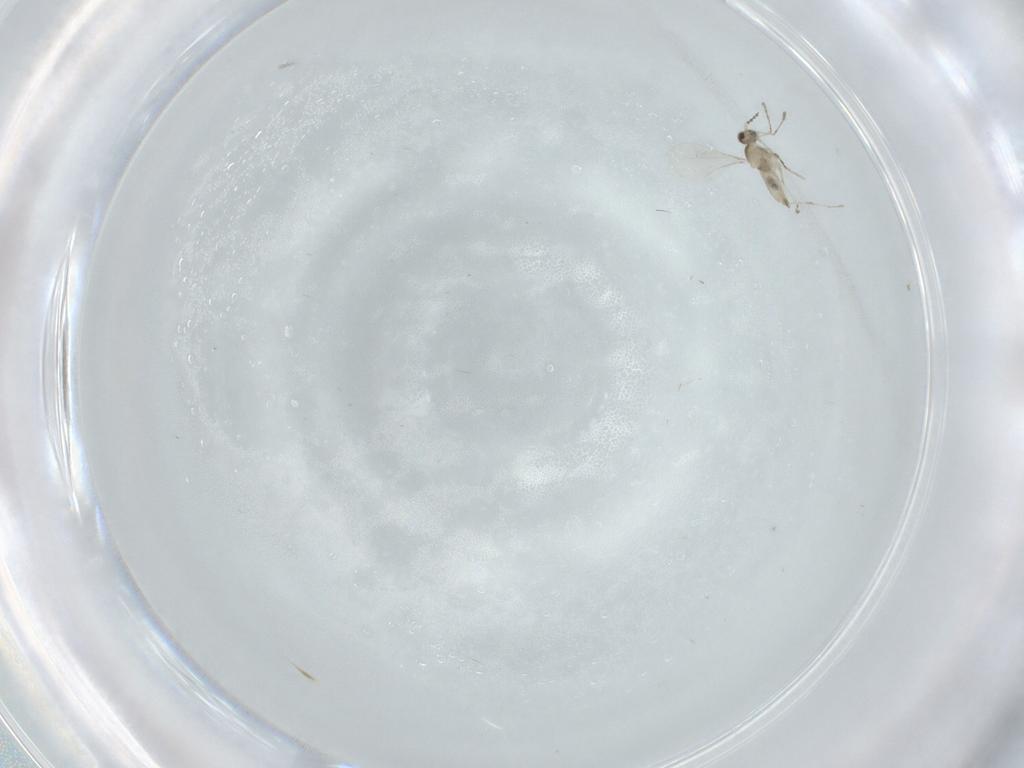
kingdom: Animalia
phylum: Arthropoda
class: Insecta
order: Diptera
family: Cecidomyiidae
